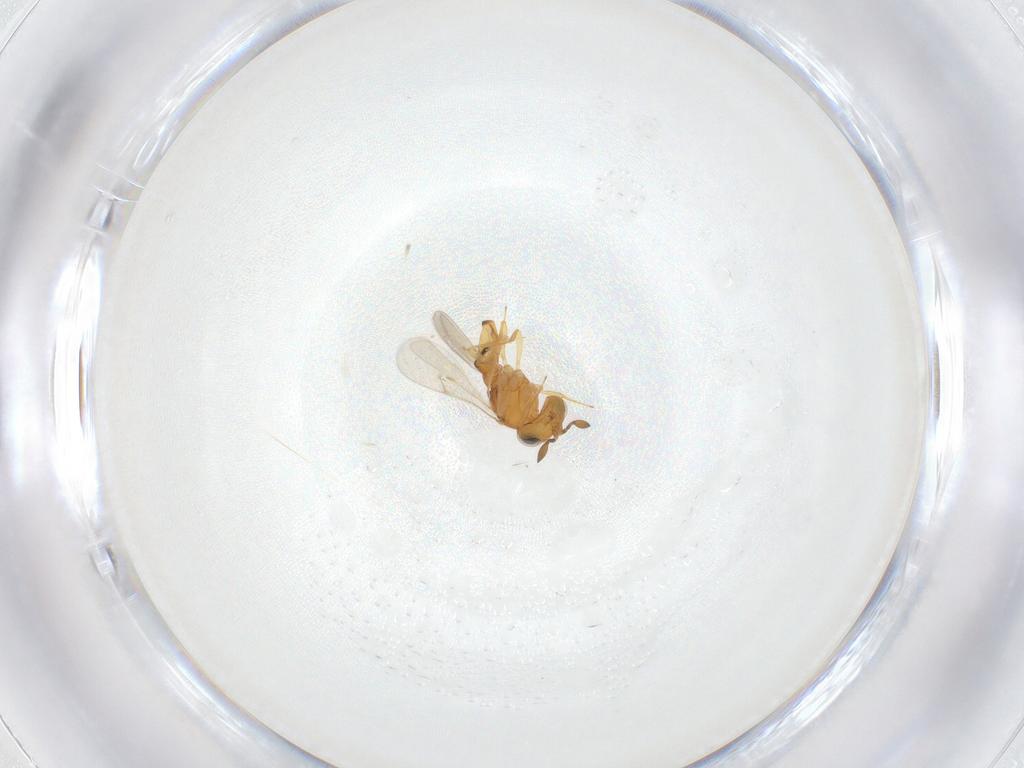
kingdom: Animalia
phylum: Arthropoda
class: Insecta
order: Hymenoptera
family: Scelionidae
